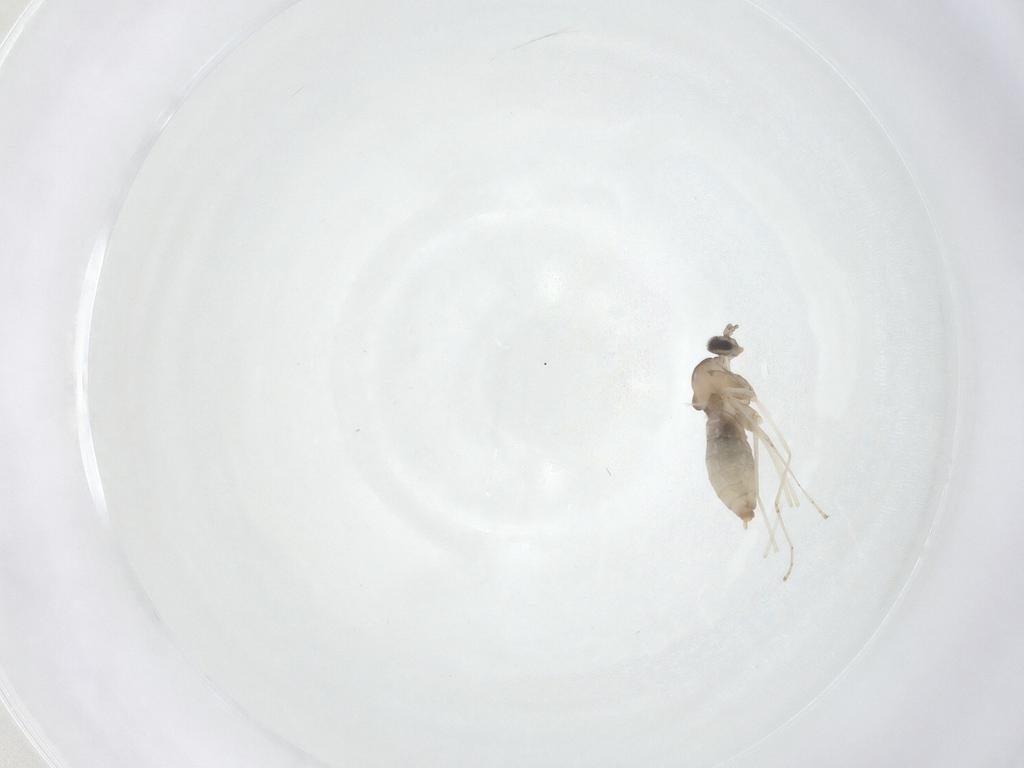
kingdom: Animalia
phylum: Arthropoda
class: Insecta
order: Diptera
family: Cecidomyiidae
